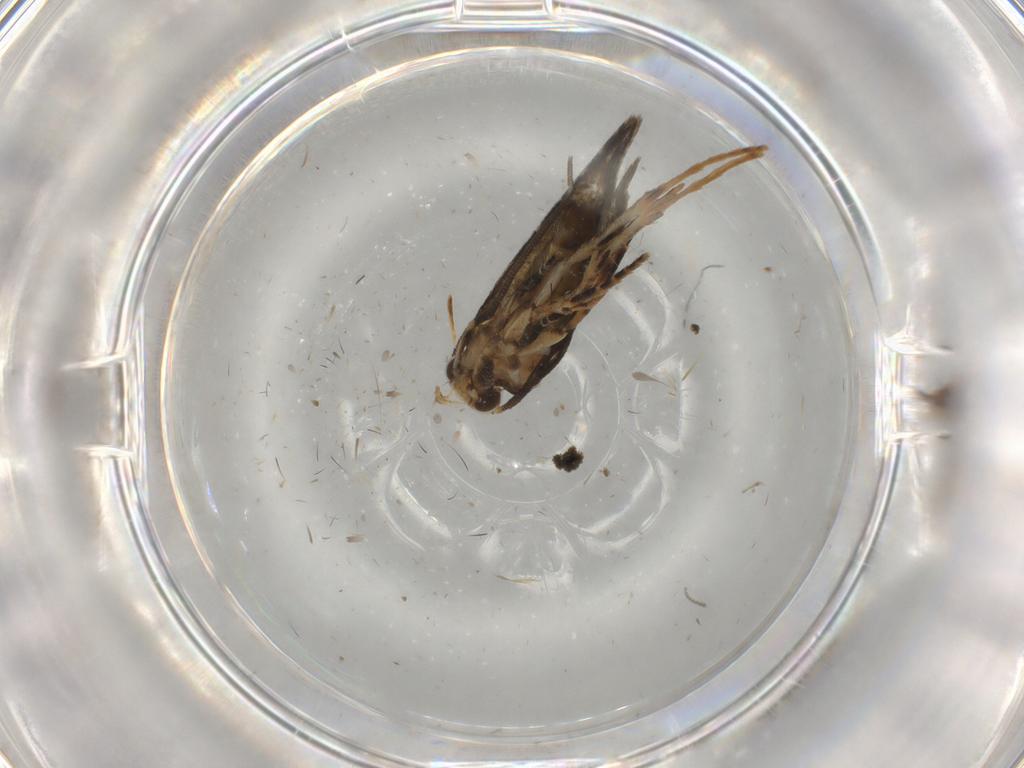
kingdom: Animalia
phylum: Arthropoda
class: Insecta
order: Lepidoptera
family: Tineidae
